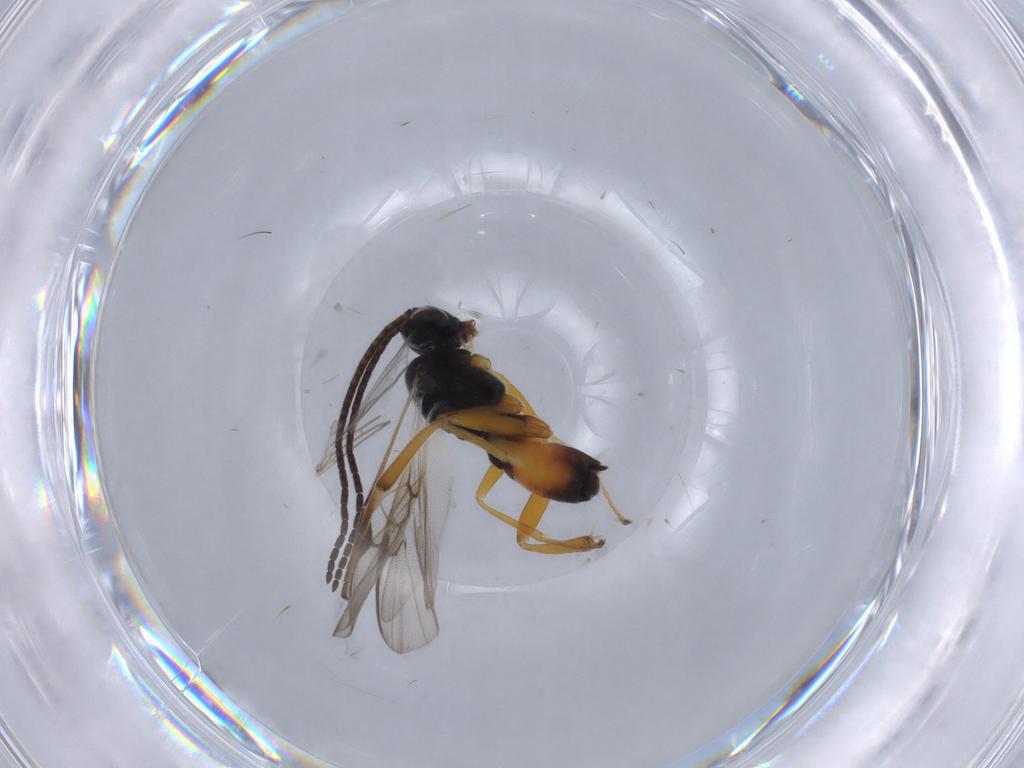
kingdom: Animalia
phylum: Arthropoda
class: Insecta
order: Hymenoptera
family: Braconidae
